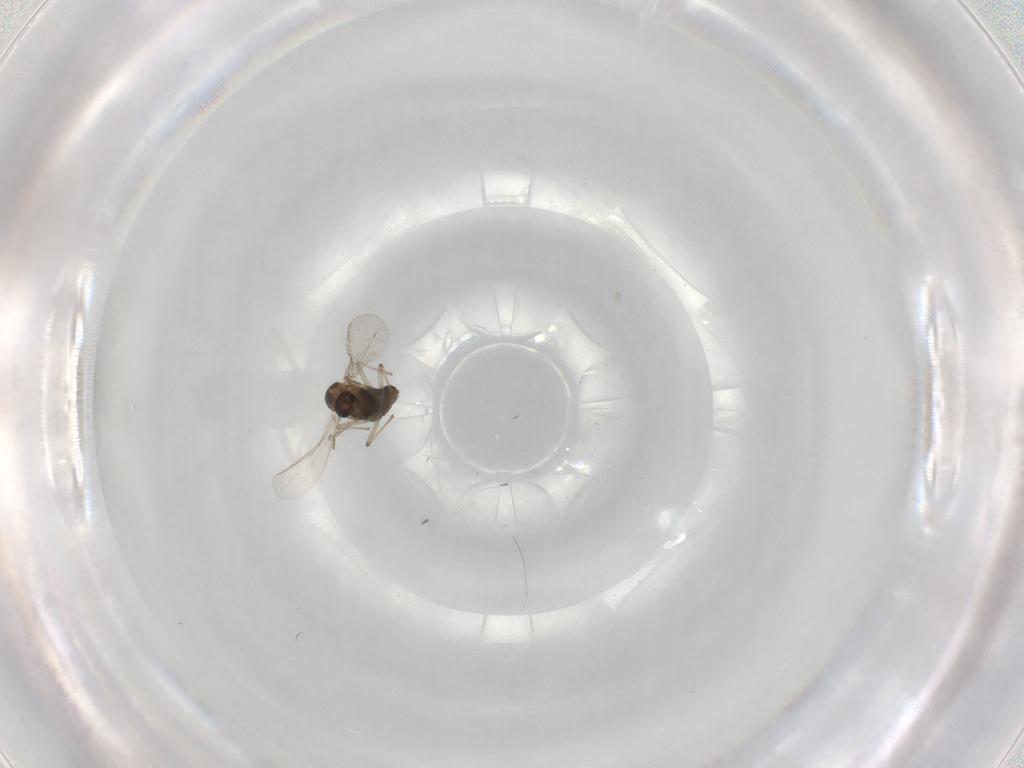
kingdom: Animalia
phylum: Arthropoda
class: Insecta
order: Diptera
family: Chironomidae
